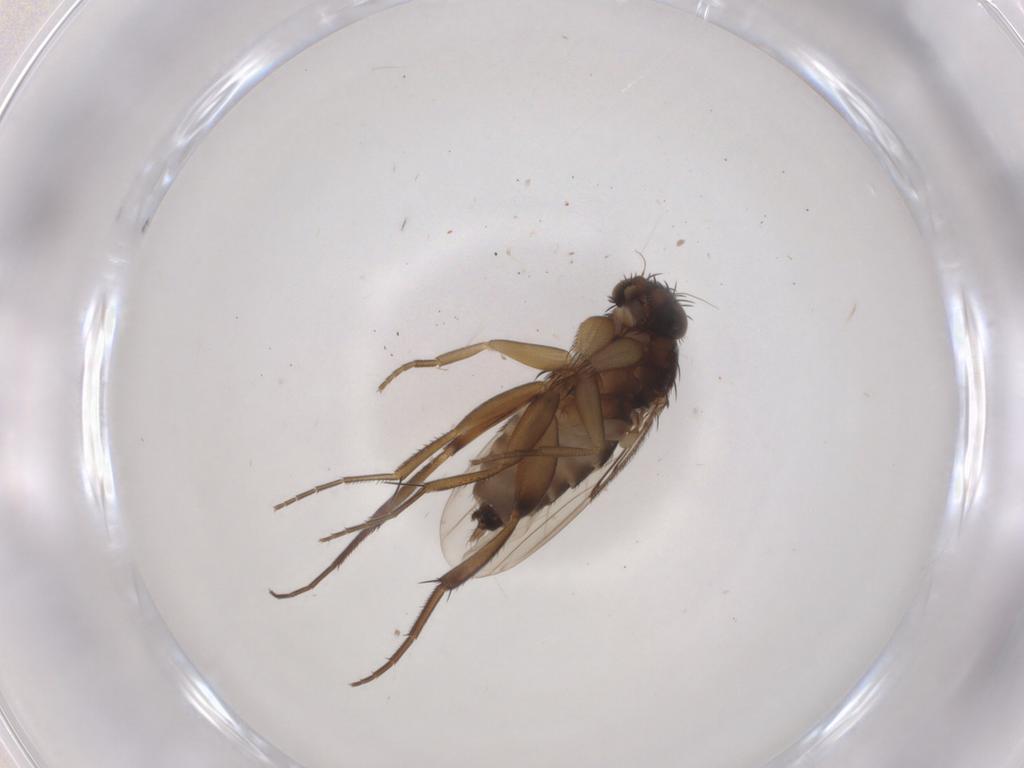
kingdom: Animalia
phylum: Arthropoda
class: Insecta
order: Diptera
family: Phoridae
